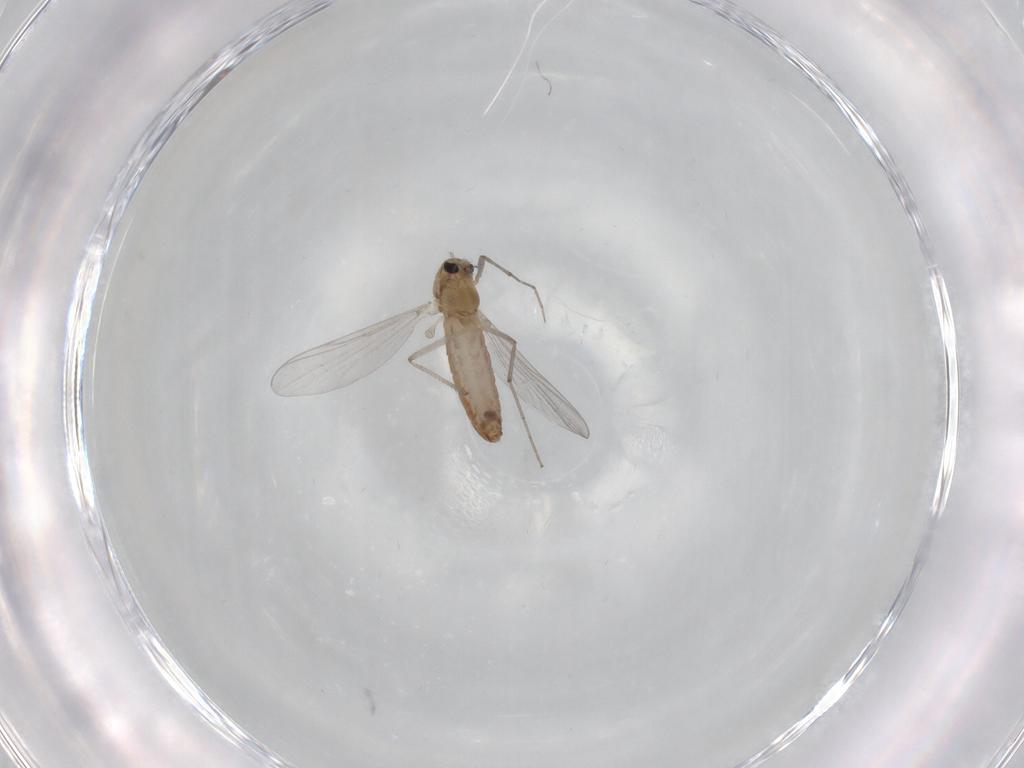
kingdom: Animalia
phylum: Arthropoda
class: Insecta
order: Diptera
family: Chironomidae
